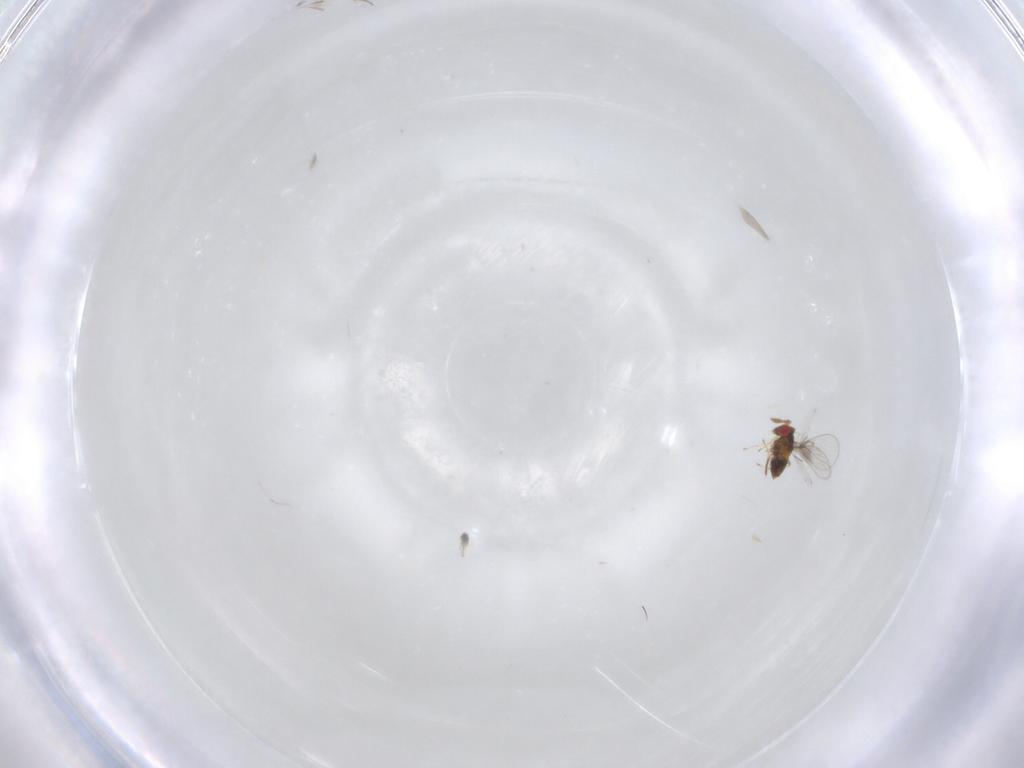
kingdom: Animalia
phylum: Arthropoda
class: Insecta
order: Hymenoptera
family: Trichogrammatidae
